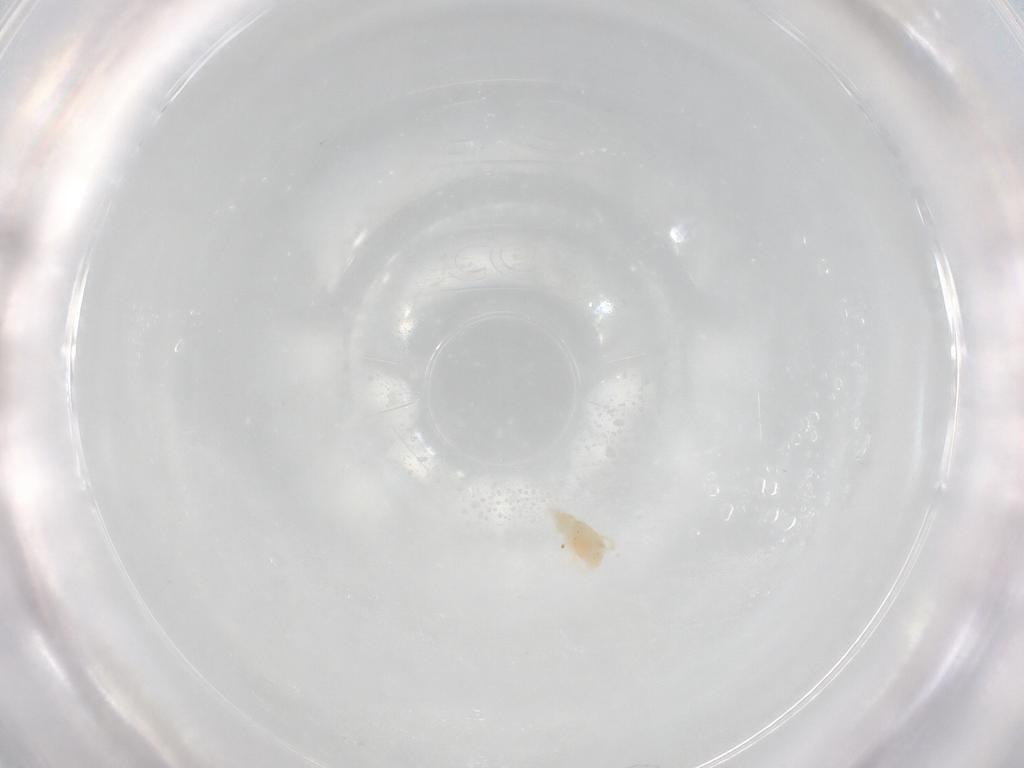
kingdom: Animalia
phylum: Arthropoda
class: Arachnida
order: Trombidiformes
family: Rhagidiidae
